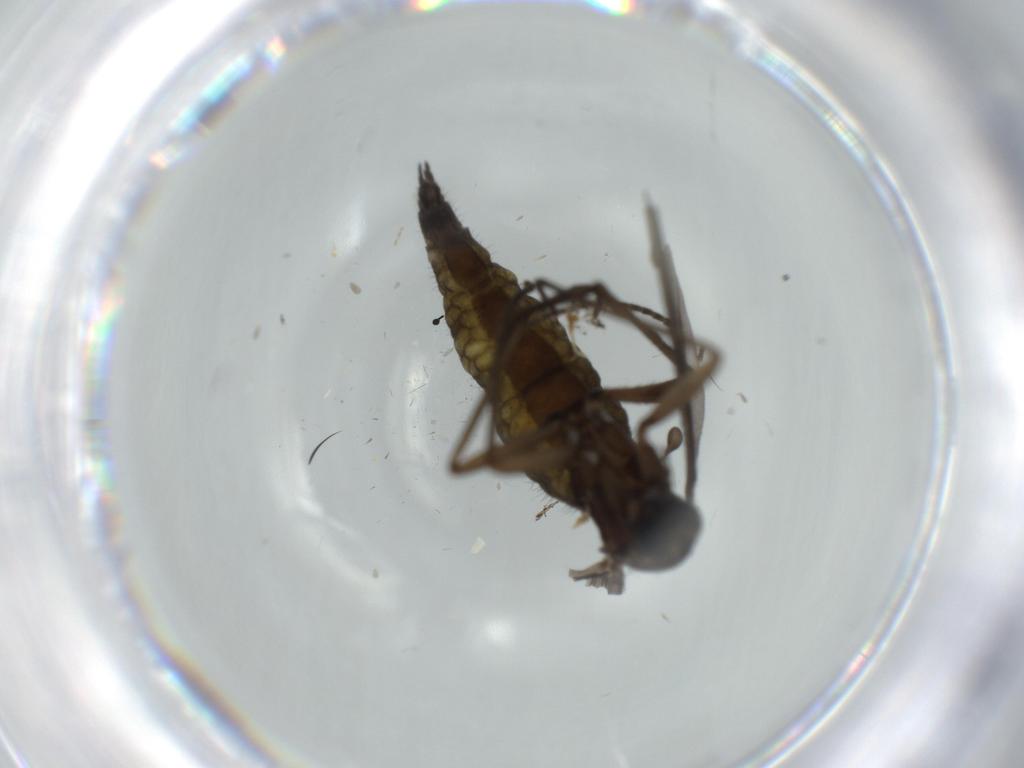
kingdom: Animalia
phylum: Arthropoda
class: Insecta
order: Diptera
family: Sciaridae
